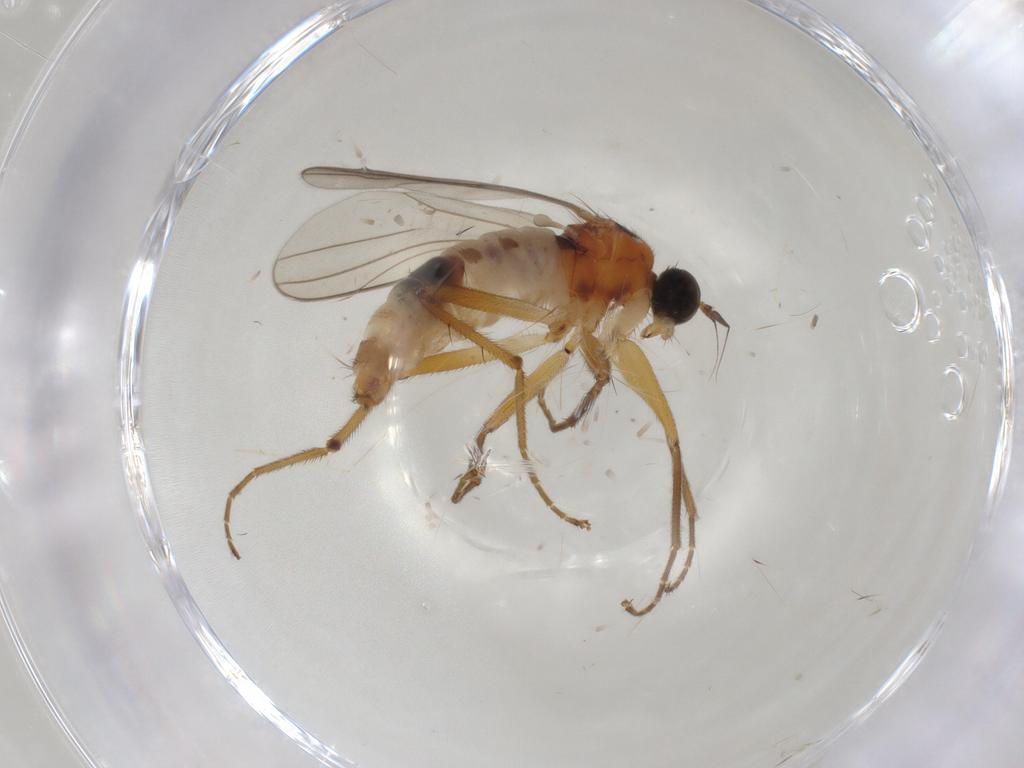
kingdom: Animalia
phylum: Arthropoda
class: Insecta
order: Diptera
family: Hybotidae
